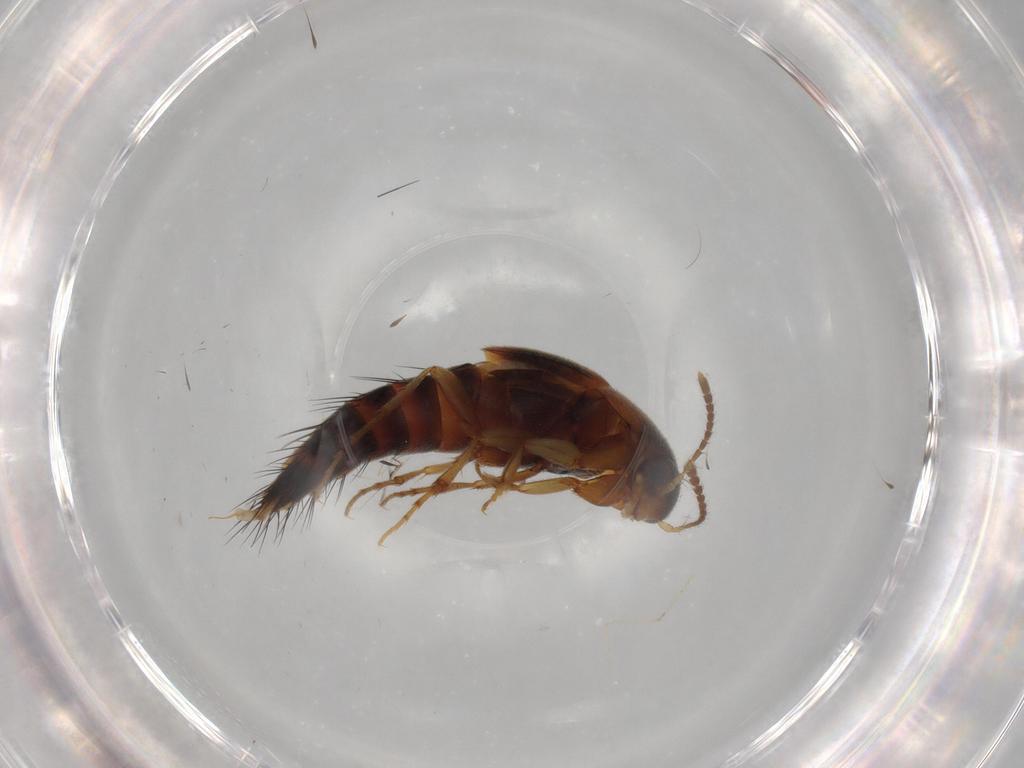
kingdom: Animalia
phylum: Arthropoda
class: Insecta
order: Coleoptera
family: Staphylinidae
